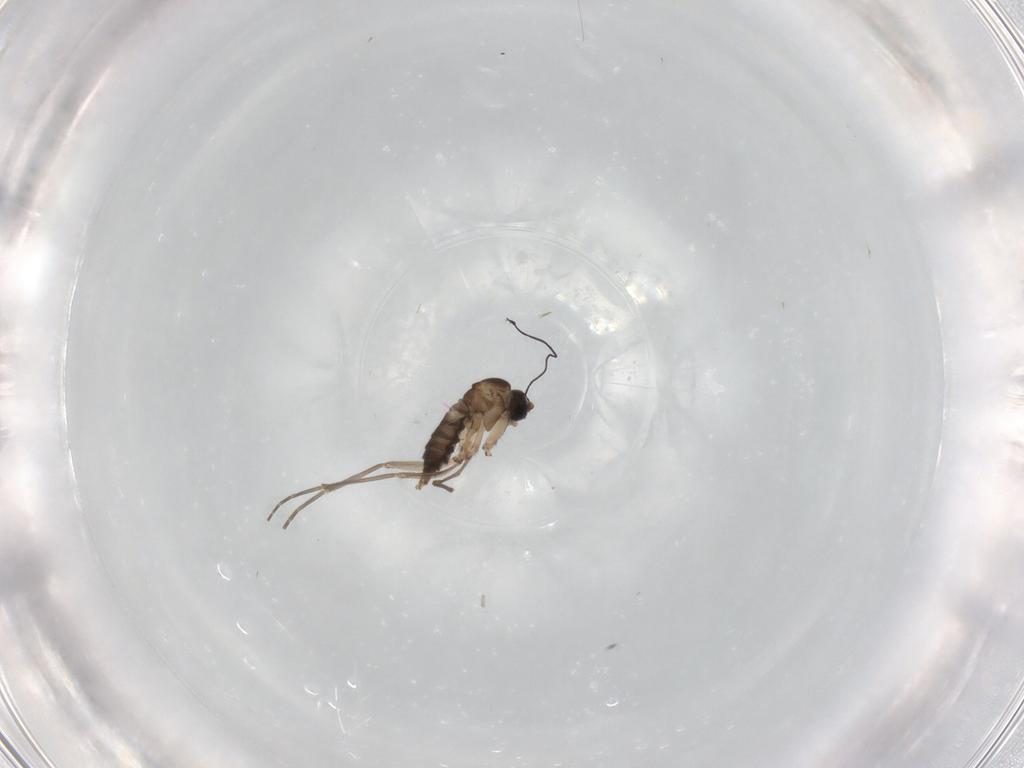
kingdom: Animalia
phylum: Arthropoda
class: Insecta
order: Diptera
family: Sciaridae
